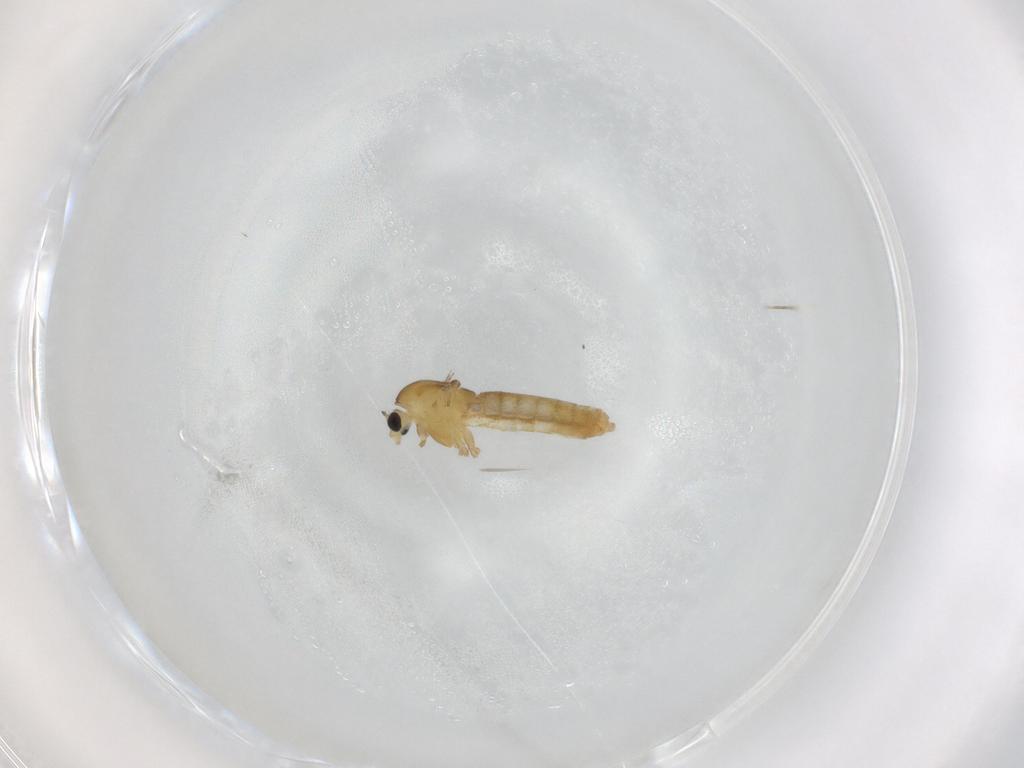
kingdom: Animalia
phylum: Arthropoda
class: Insecta
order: Diptera
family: Chironomidae
